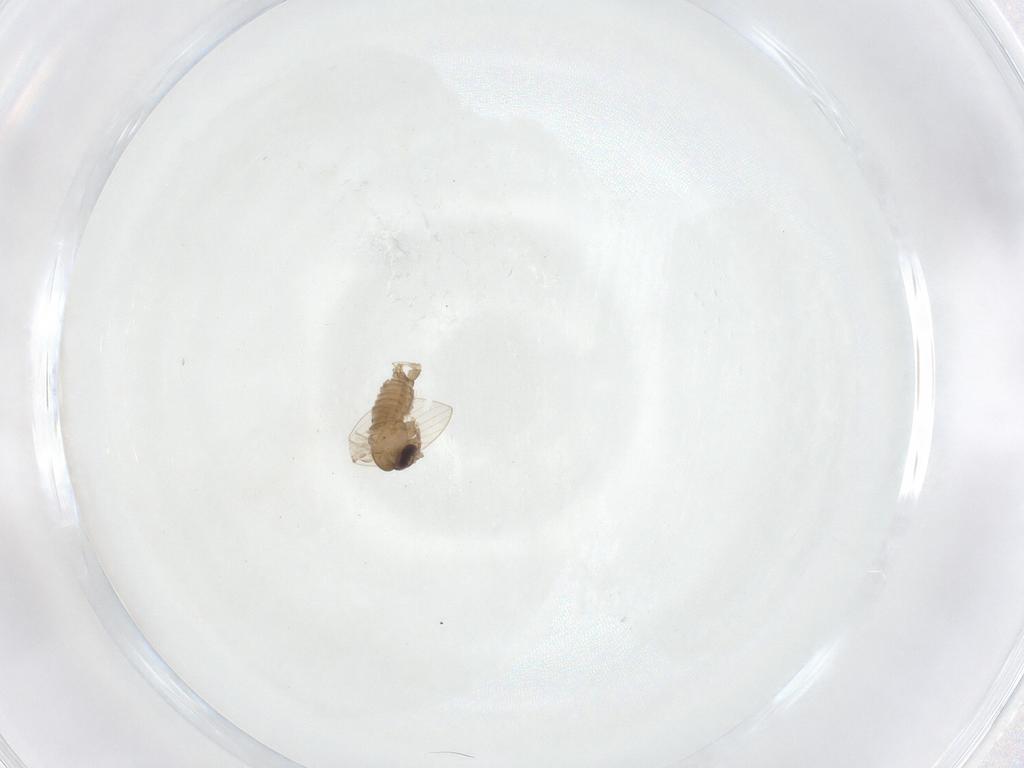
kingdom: Animalia
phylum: Arthropoda
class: Insecta
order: Diptera
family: Psychodidae
